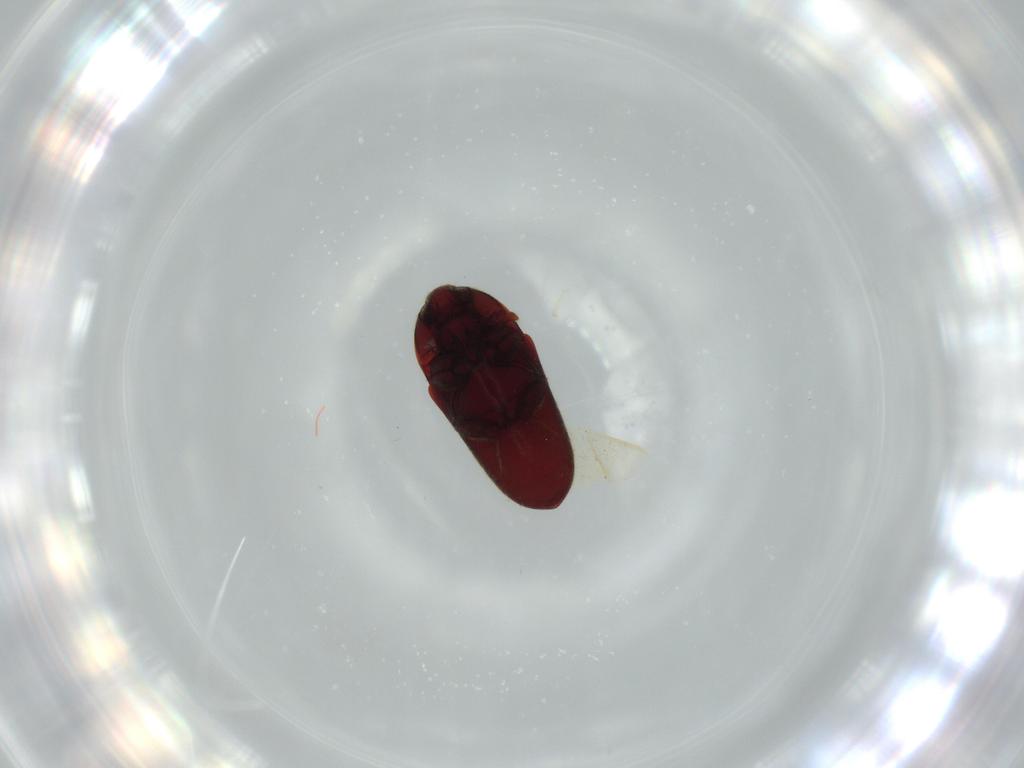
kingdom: Animalia
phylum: Arthropoda
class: Insecta
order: Coleoptera
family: Throscidae
